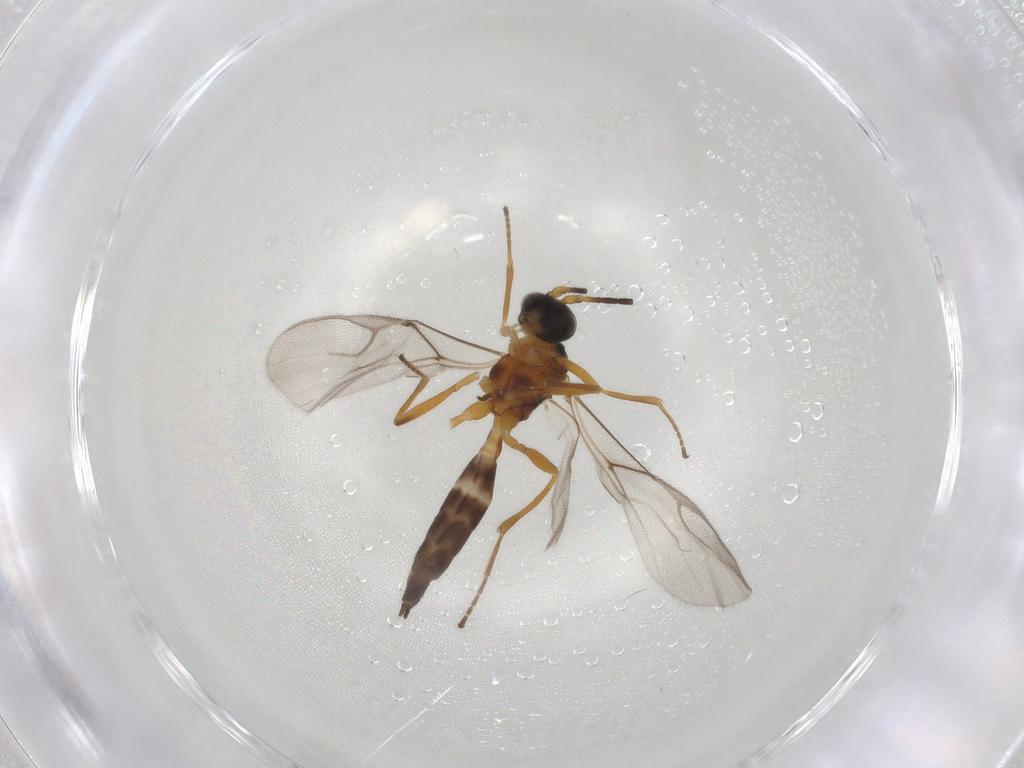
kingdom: Animalia
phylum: Arthropoda
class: Insecta
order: Hymenoptera
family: Braconidae
